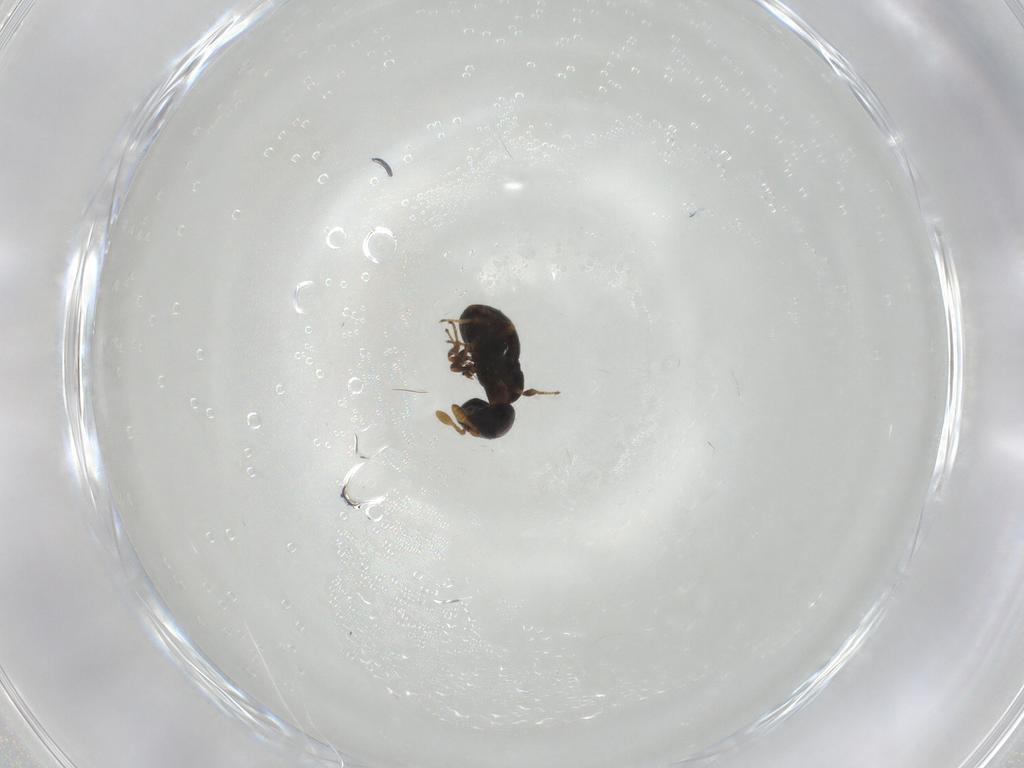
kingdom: Animalia
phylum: Arthropoda
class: Insecta
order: Hymenoptera
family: Scelionidae
